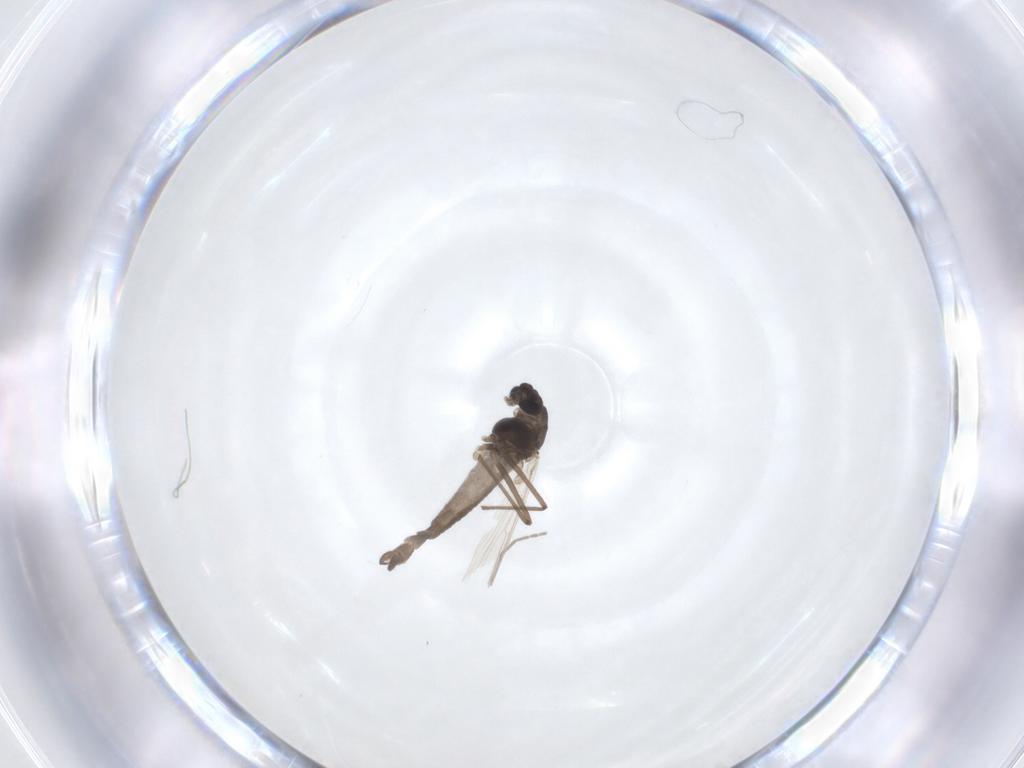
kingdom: Animalia
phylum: Arthropoda
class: Insecta
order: Diptera
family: Chironomidae
